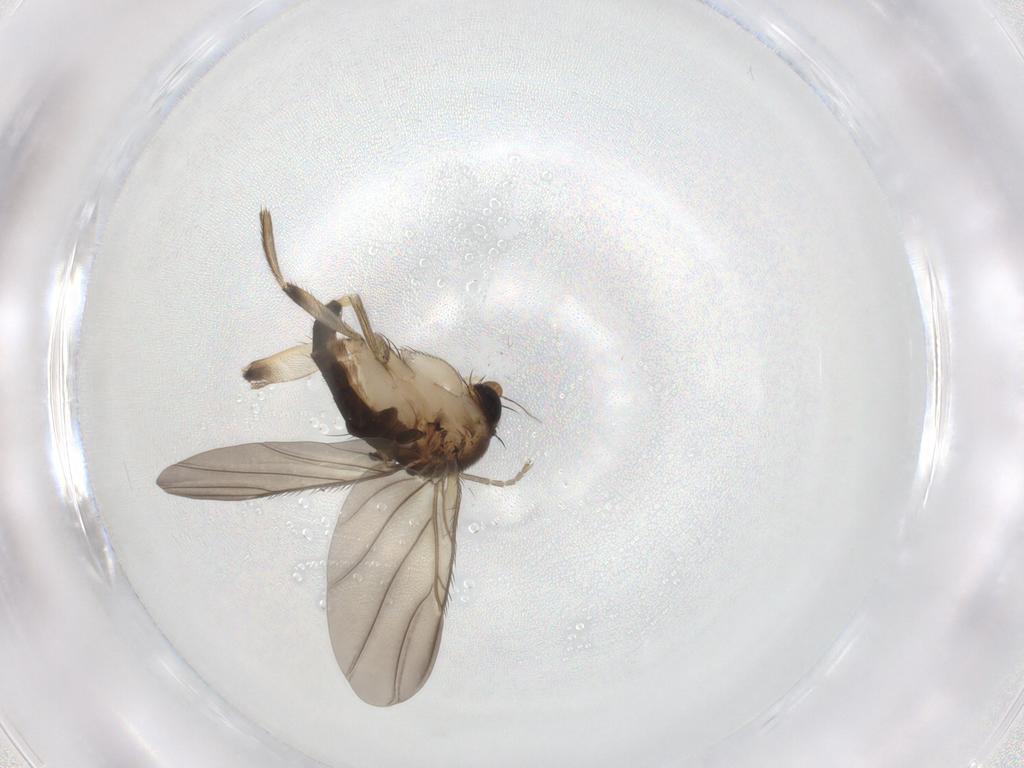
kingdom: Animalia
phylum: Arthropoda
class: Insecta
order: Diptera
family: Phoridae
